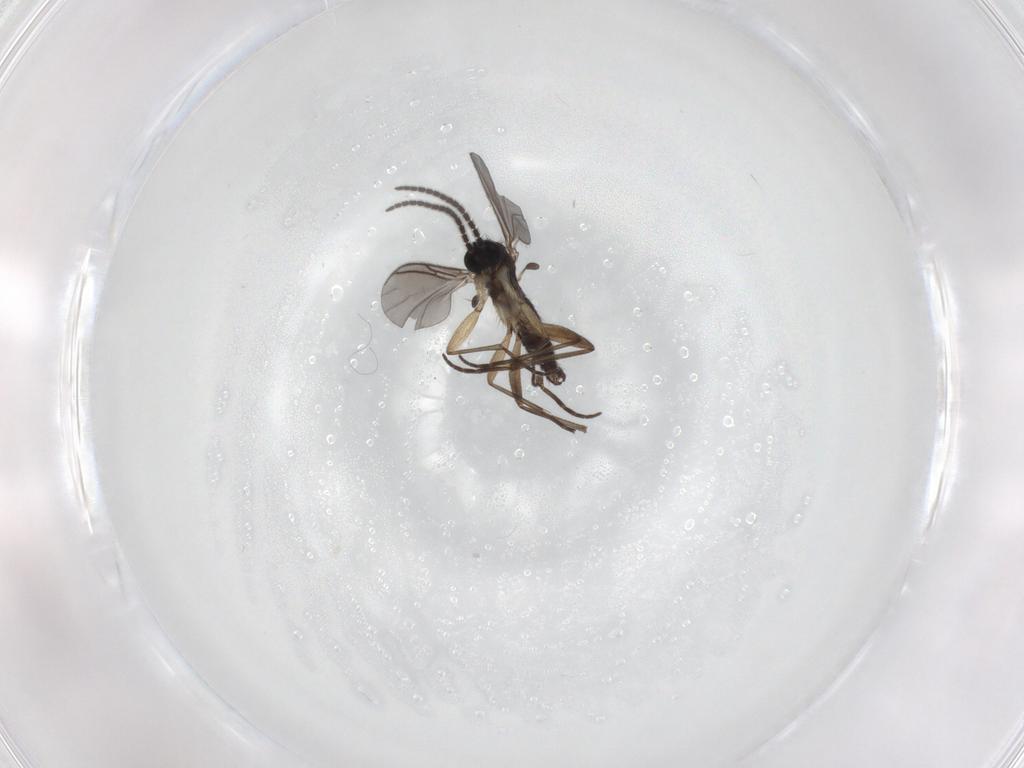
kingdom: Animalia
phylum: Arthropoda
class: Insecta
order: Diptera
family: Sciaridae
